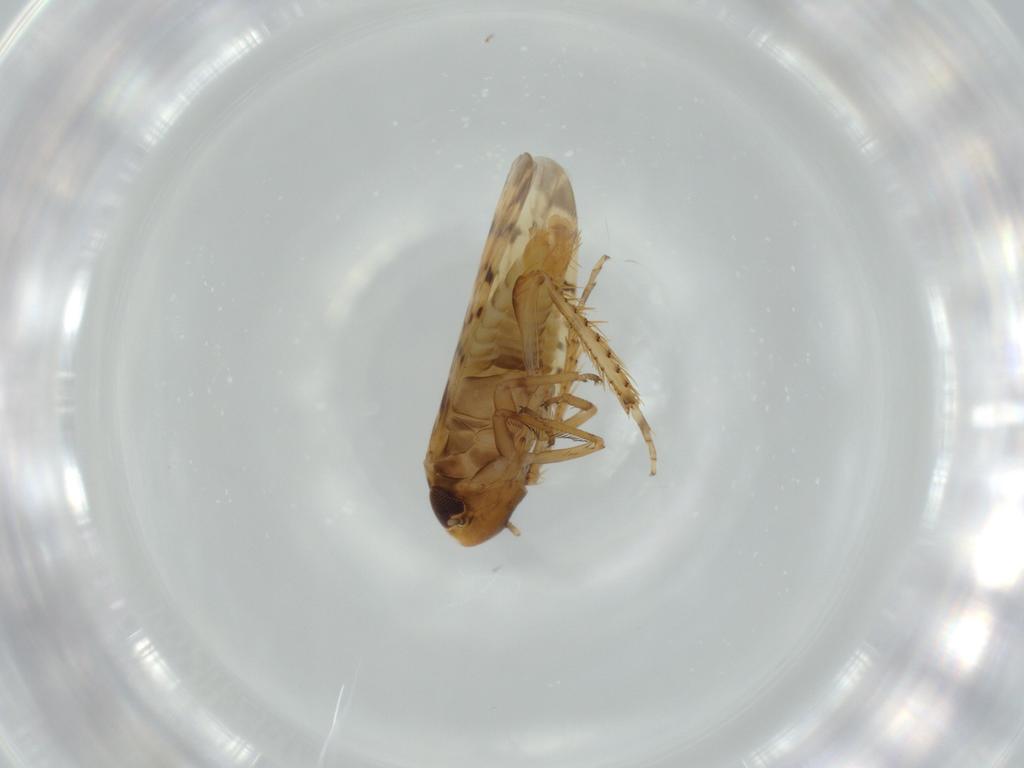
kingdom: Animalia
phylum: Arthropoda
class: Insecta
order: Hemiptera
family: Cicadellidae
